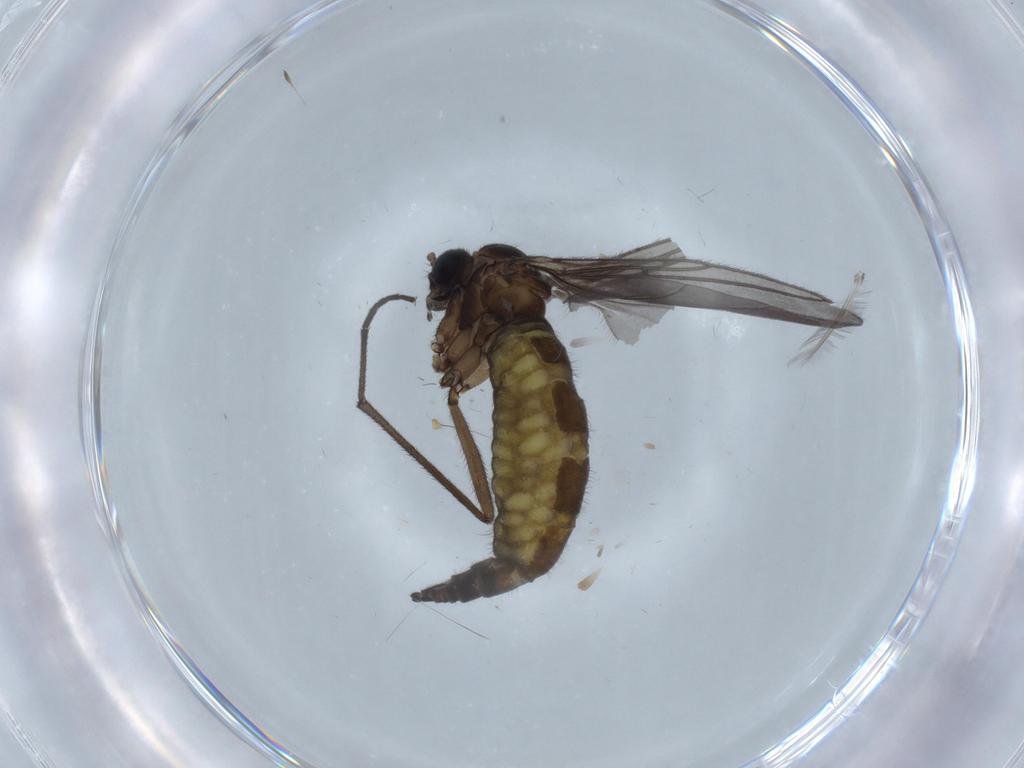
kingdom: Animalia
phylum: Arthropoda
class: Insecta
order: Diptera
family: Sciaridae
